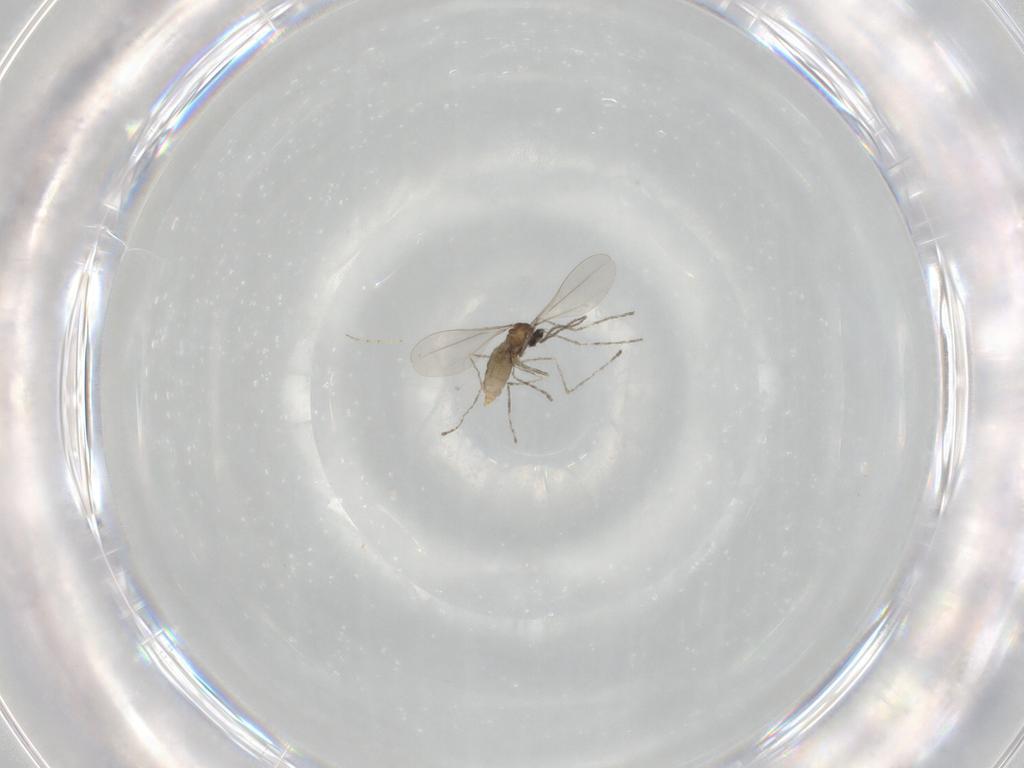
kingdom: Animalia
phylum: Arthropoda
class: Insecta
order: Diptera
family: Cecidomyiidae
